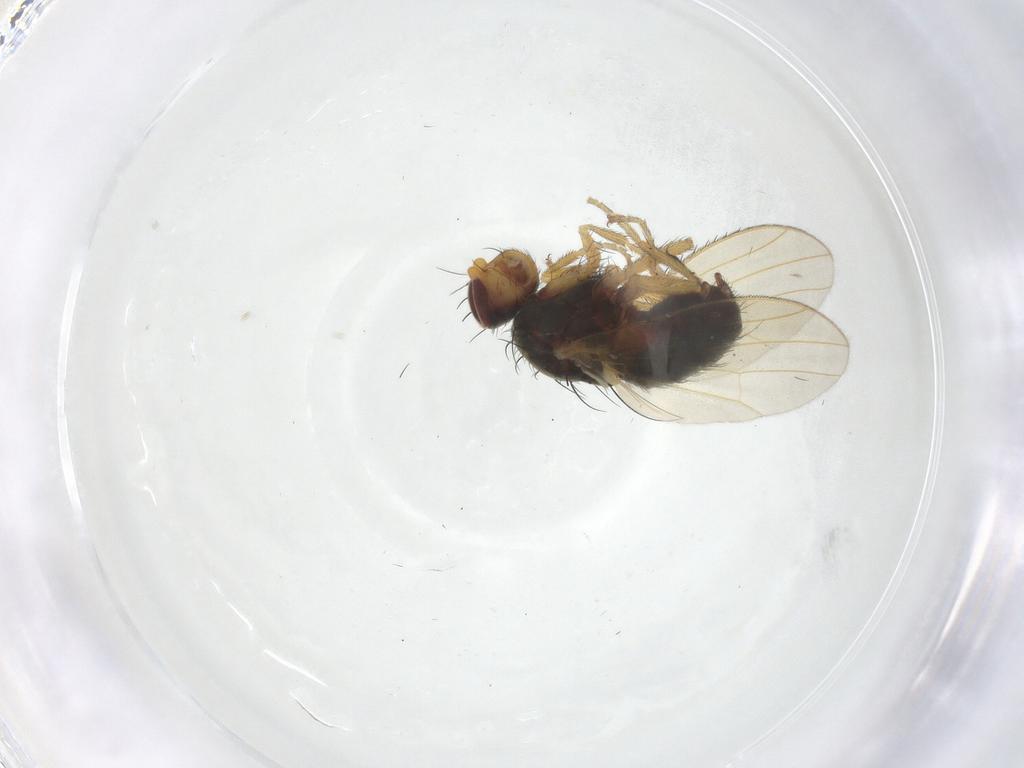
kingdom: Animalia
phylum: Arthropoda
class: Insecta
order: Diptera
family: Heleomyzidae
